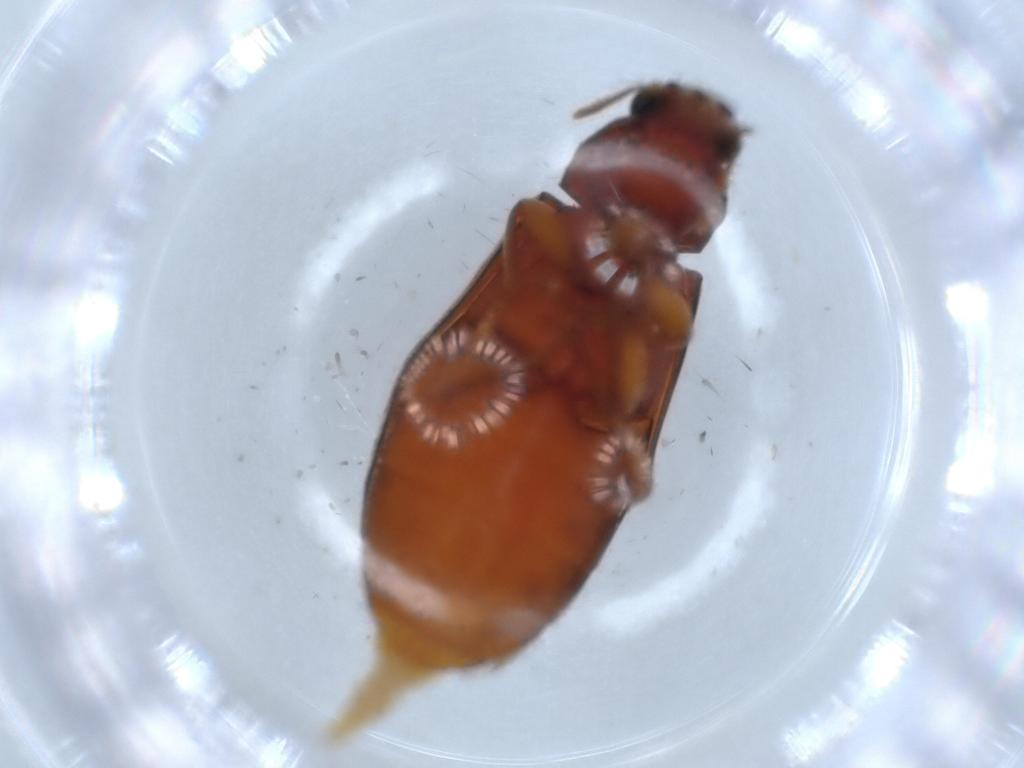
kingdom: Animalia
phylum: Arthropoda
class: Insecta
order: Coleoptera
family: Mycteridae
